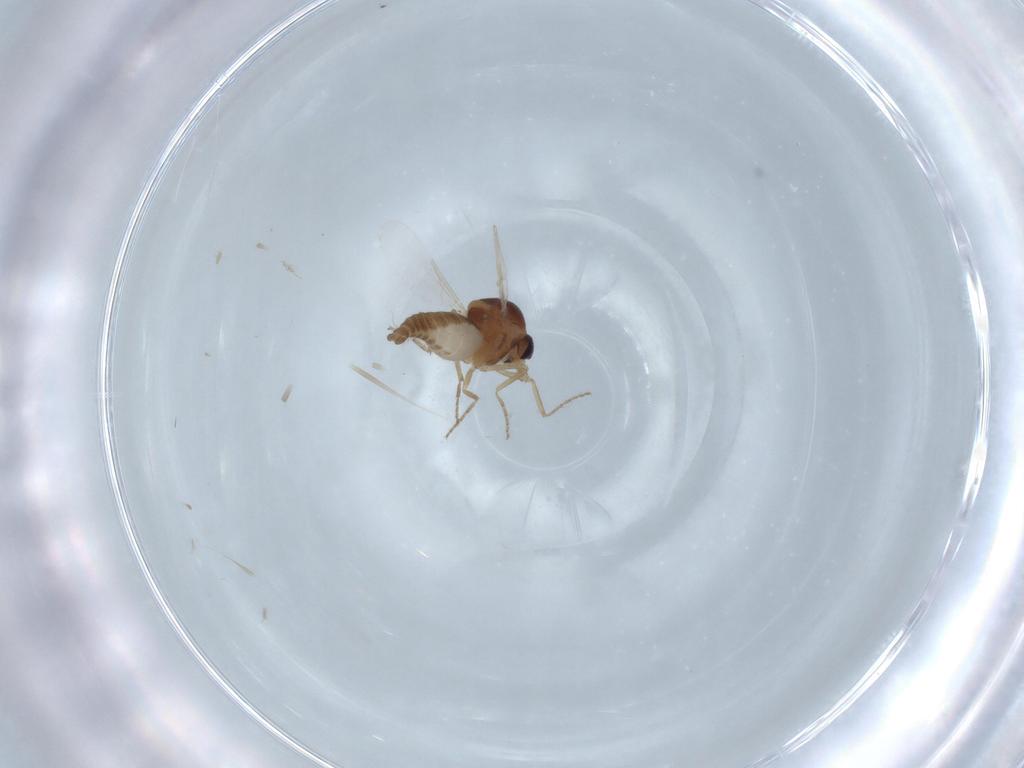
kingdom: Animalia
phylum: Arthropoda
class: Insecta
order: Diptera
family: Ceratopogonidae
